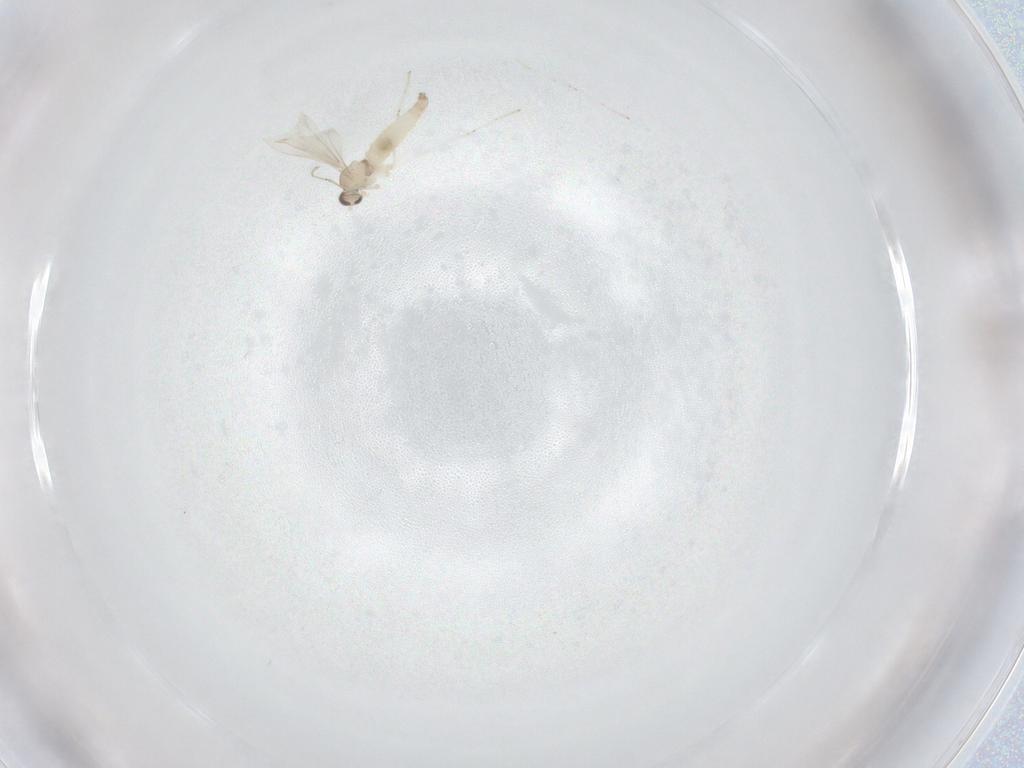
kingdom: Animalia
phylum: Arthropoda
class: Insecta
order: Diptera
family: Cecidomyiidae
